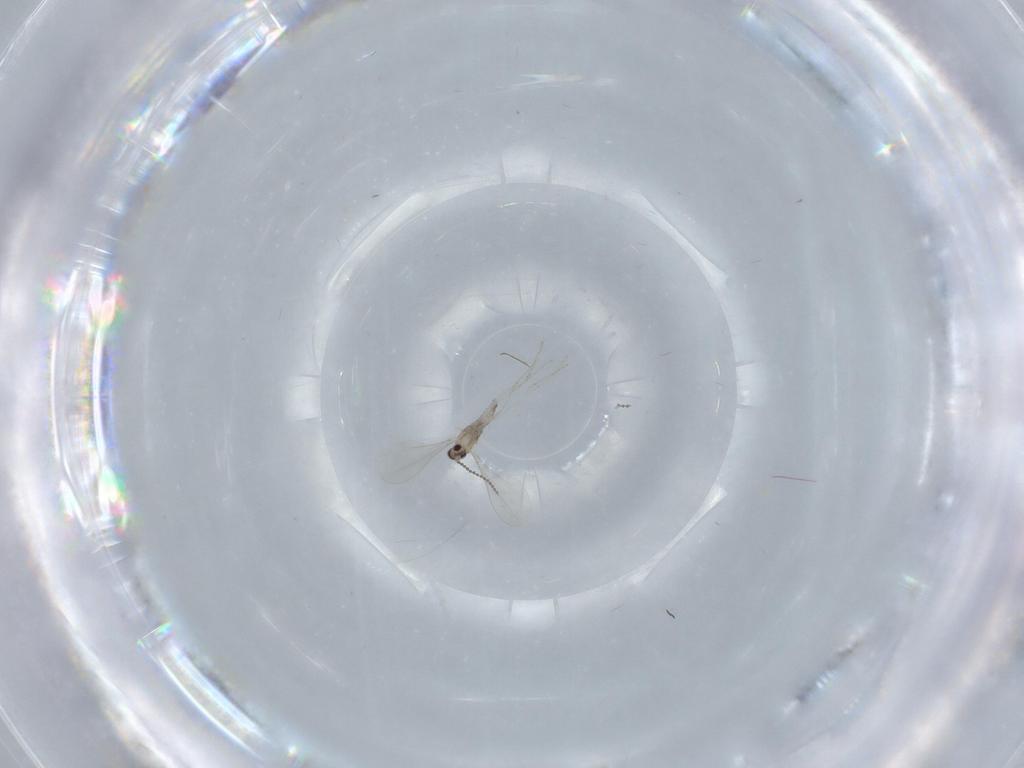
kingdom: Animalia
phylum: Arthropoda
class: Insecta
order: Diptera
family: Cecidomyiidae
